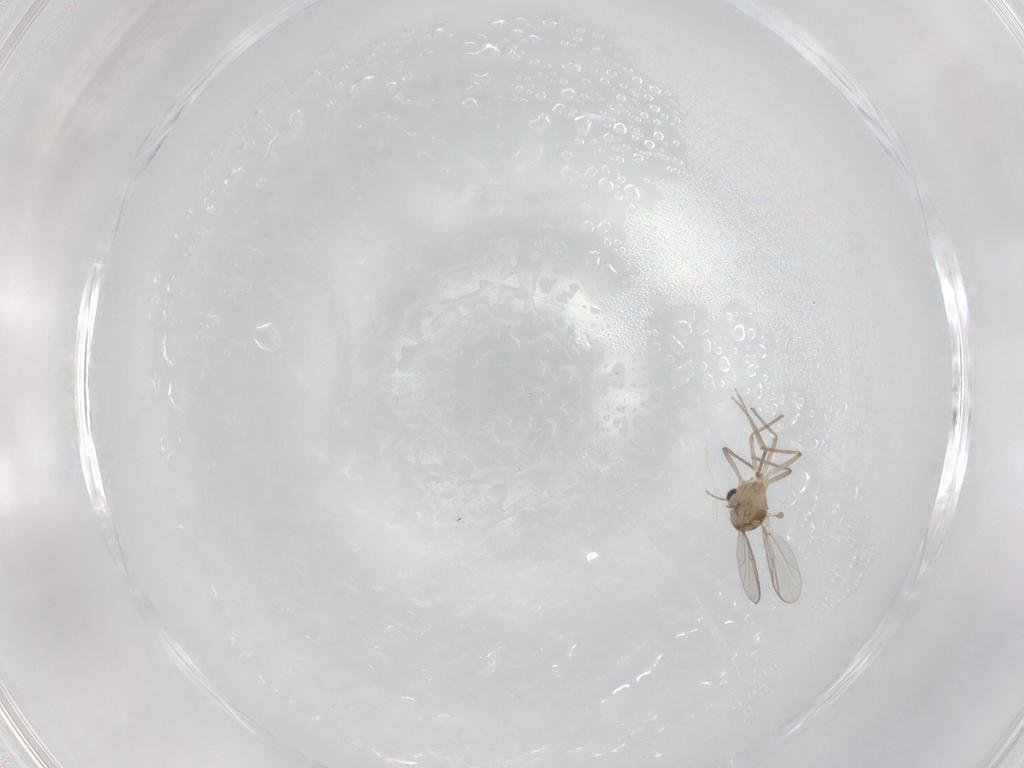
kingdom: Animalia
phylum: Arthropoda
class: Insecta
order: Diptera
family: Chironomidae
